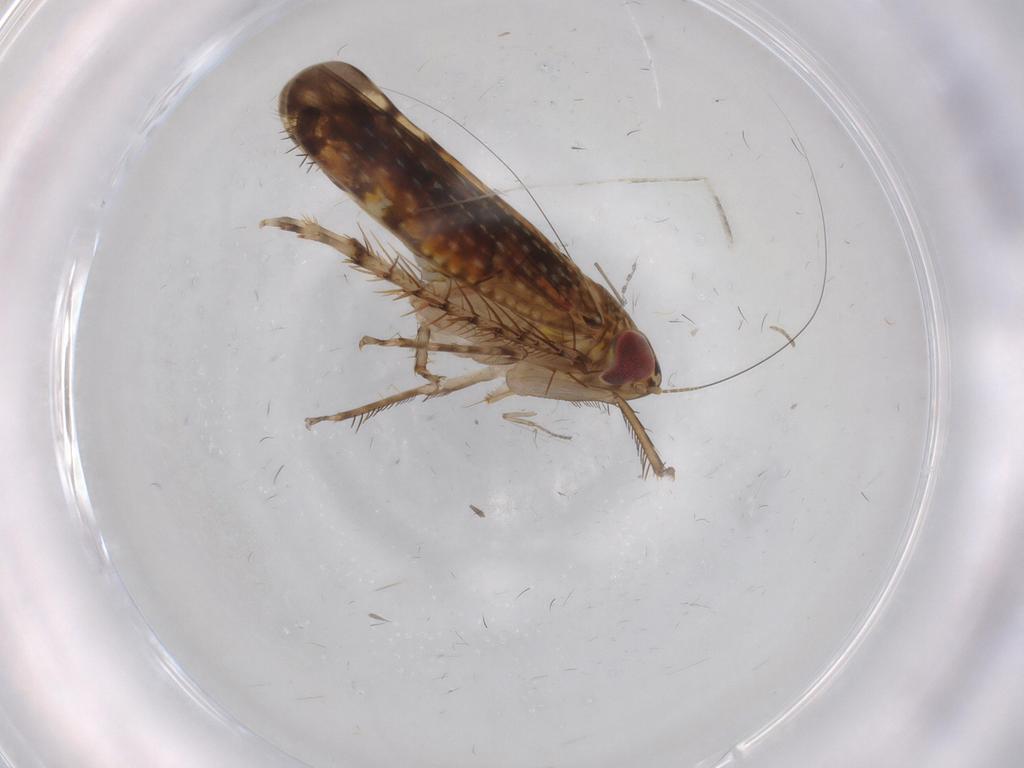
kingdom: Animalia
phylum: Arthropoda
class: Insecta
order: Hemiptera
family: Cicadellidae
